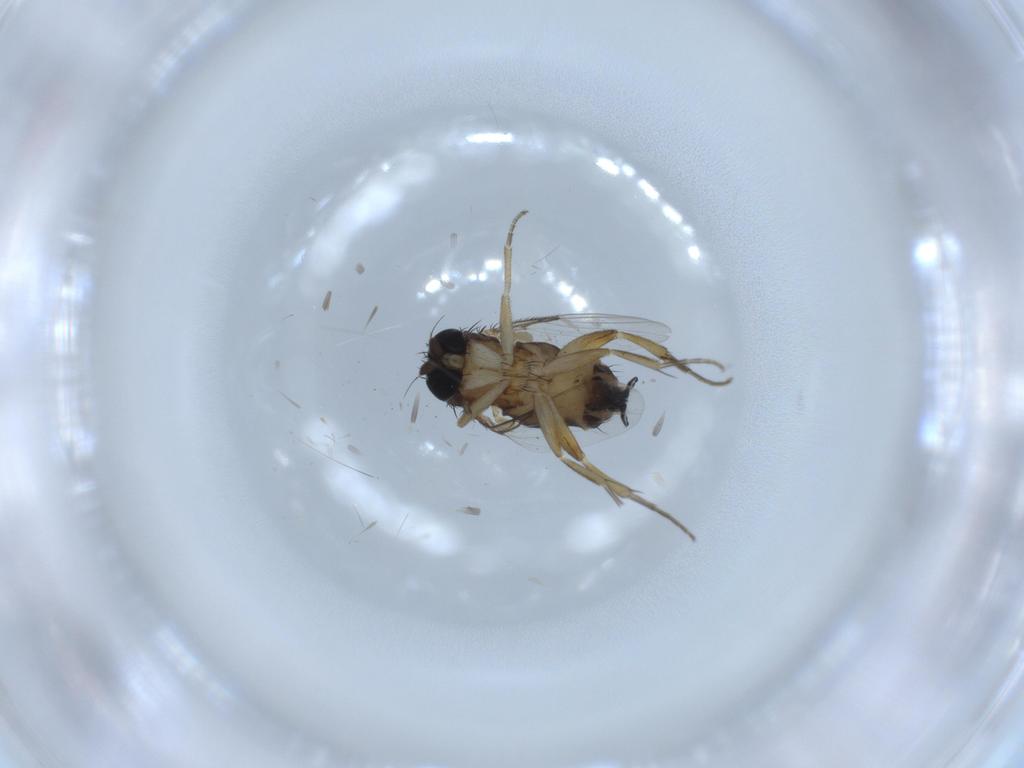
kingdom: Animalia
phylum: Arthropoda
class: Insecta
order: Diptera
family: Phoridae
